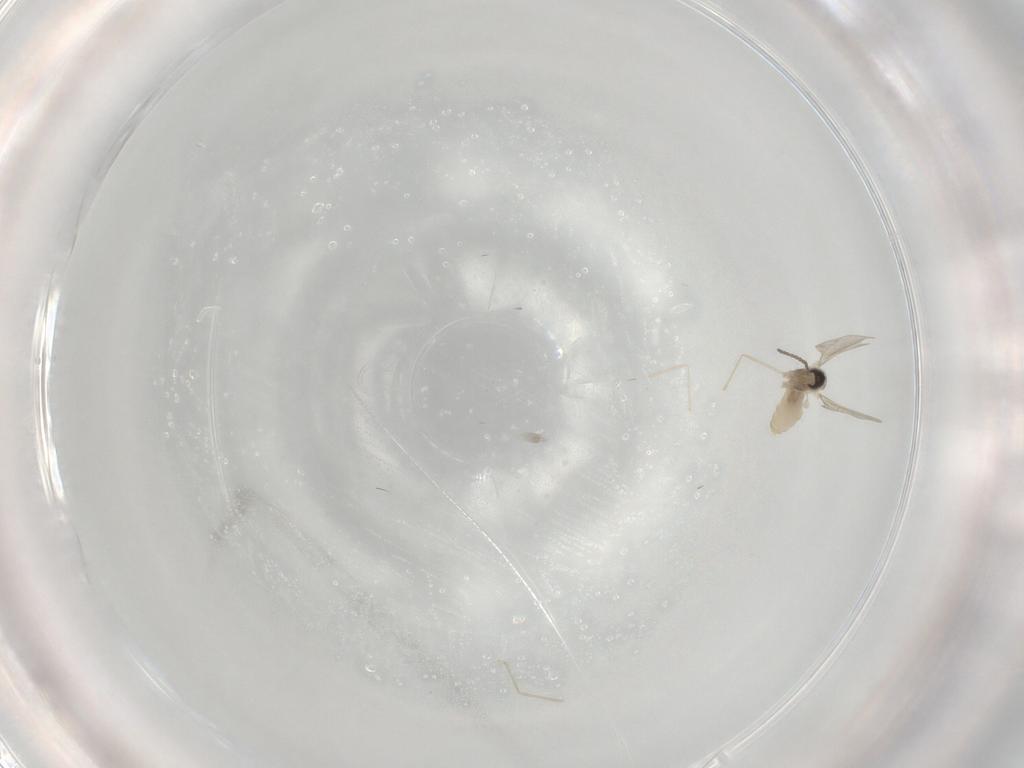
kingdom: Animalia
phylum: Arthropoda
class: Insecta
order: Diptera
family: Cecidomyiidae
